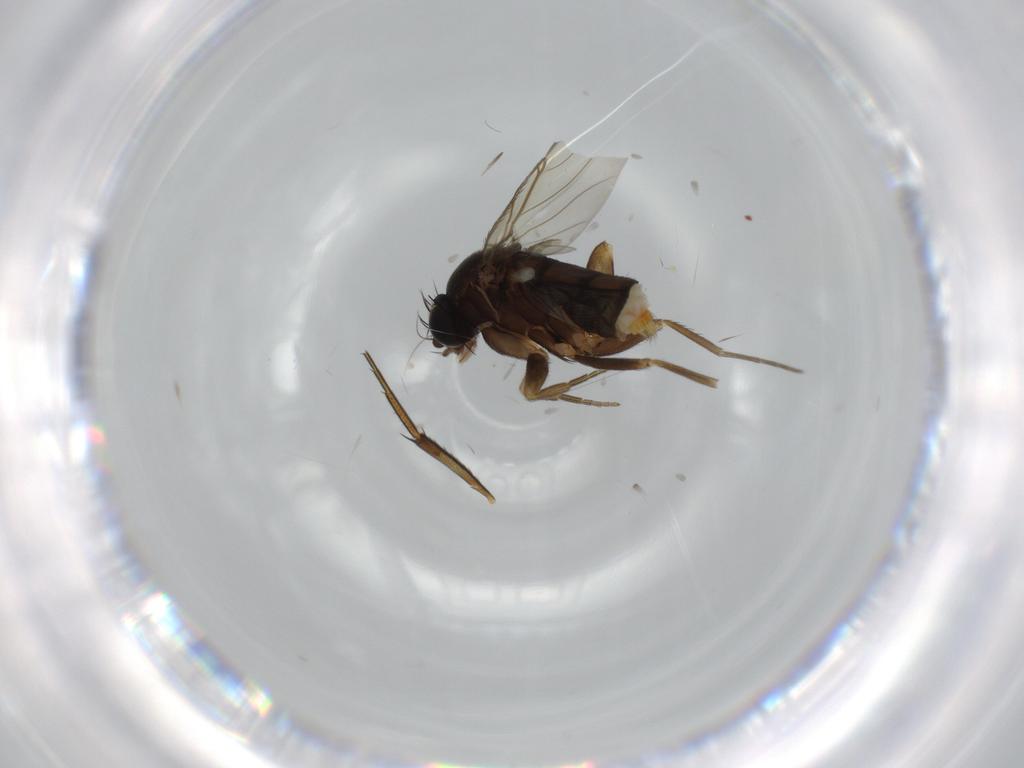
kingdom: Animalia
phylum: Arthropoda
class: Insecta
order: Diptera
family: Phoridae
